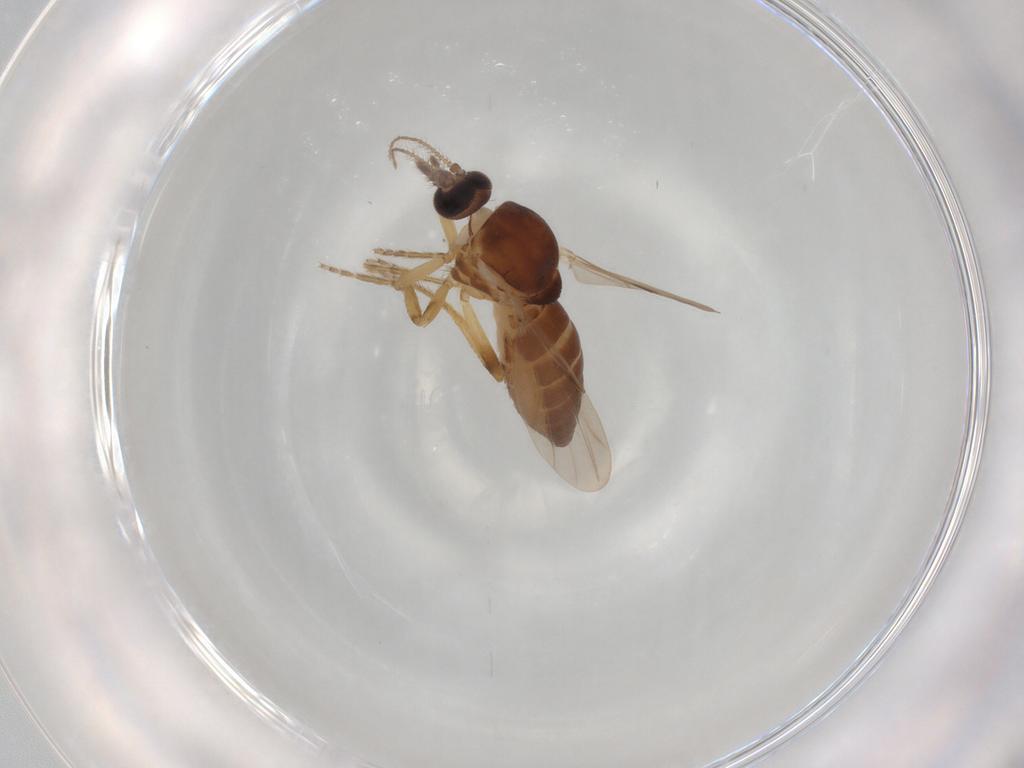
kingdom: Animalia
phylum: Arthropoda
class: Insecta
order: Diptera
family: Ceratopogonidae
